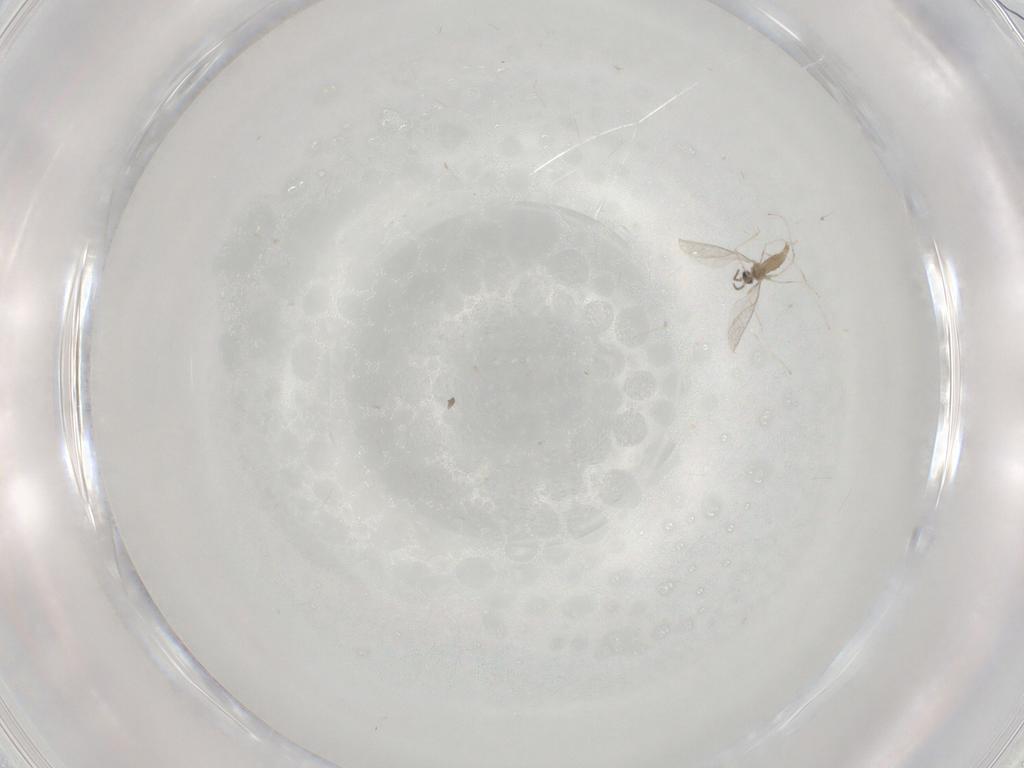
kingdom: Animalia
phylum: Arthropoda
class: Insecta
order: Diptera
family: Cecidomyiidae
